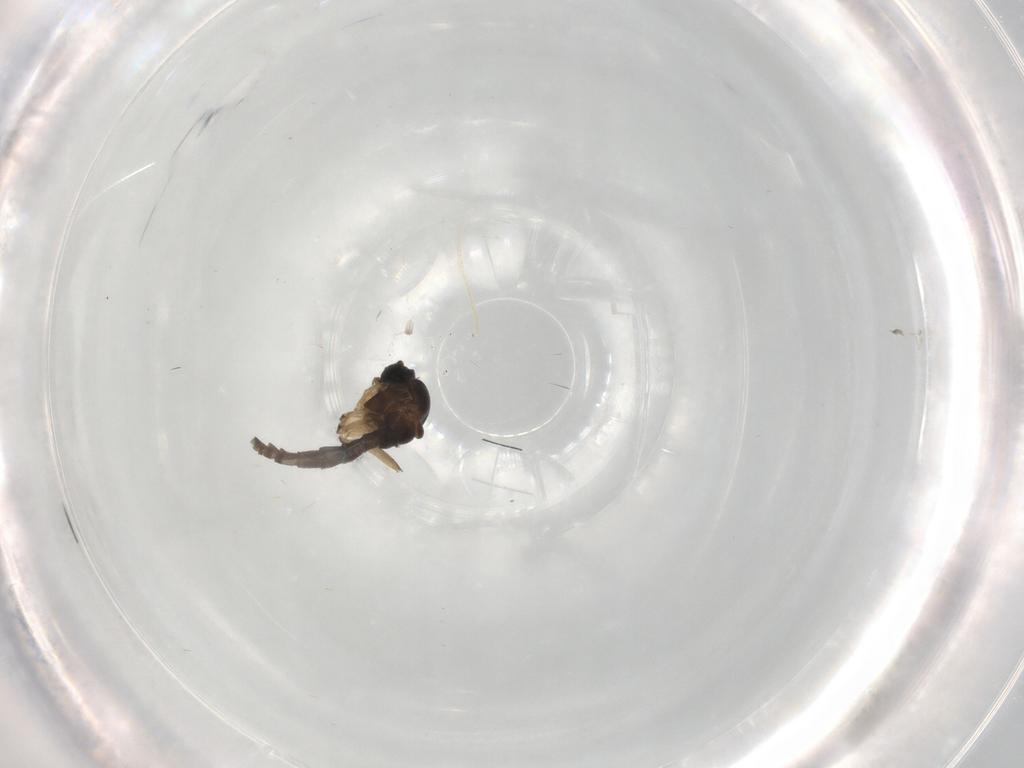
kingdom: Animalia
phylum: Arthropoda
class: Insecta
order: Diptera
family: Sciaridae
